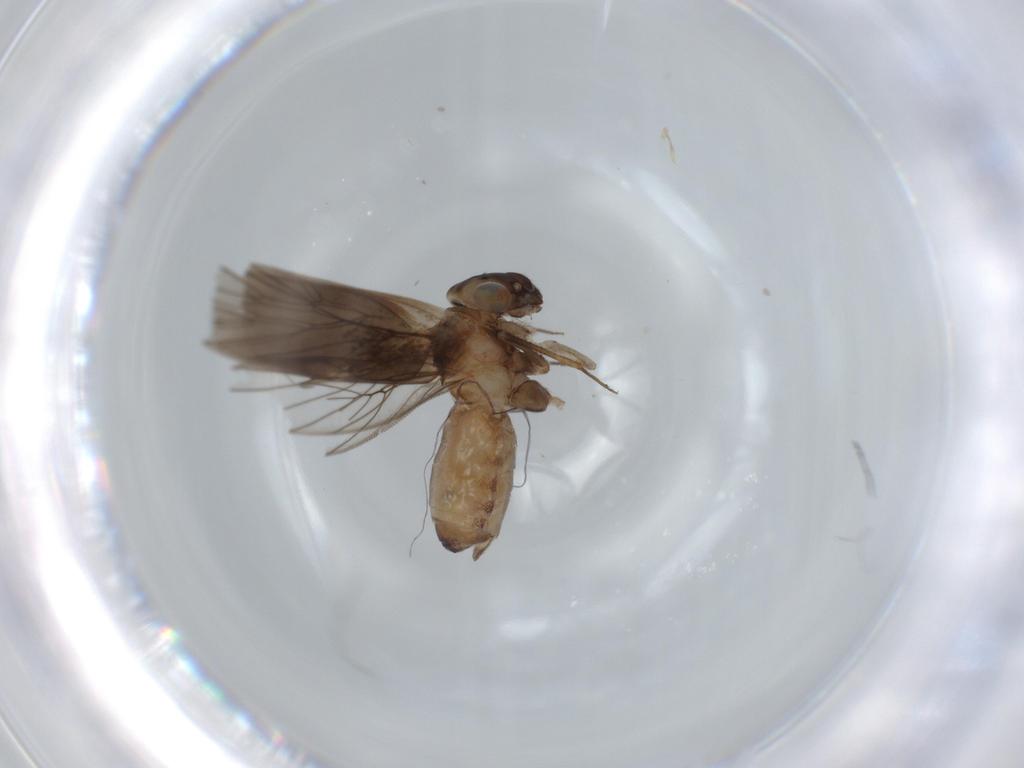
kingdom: Animalia
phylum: Arthropoda
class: Insecta
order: Psocodea
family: Lepidopsocidae
